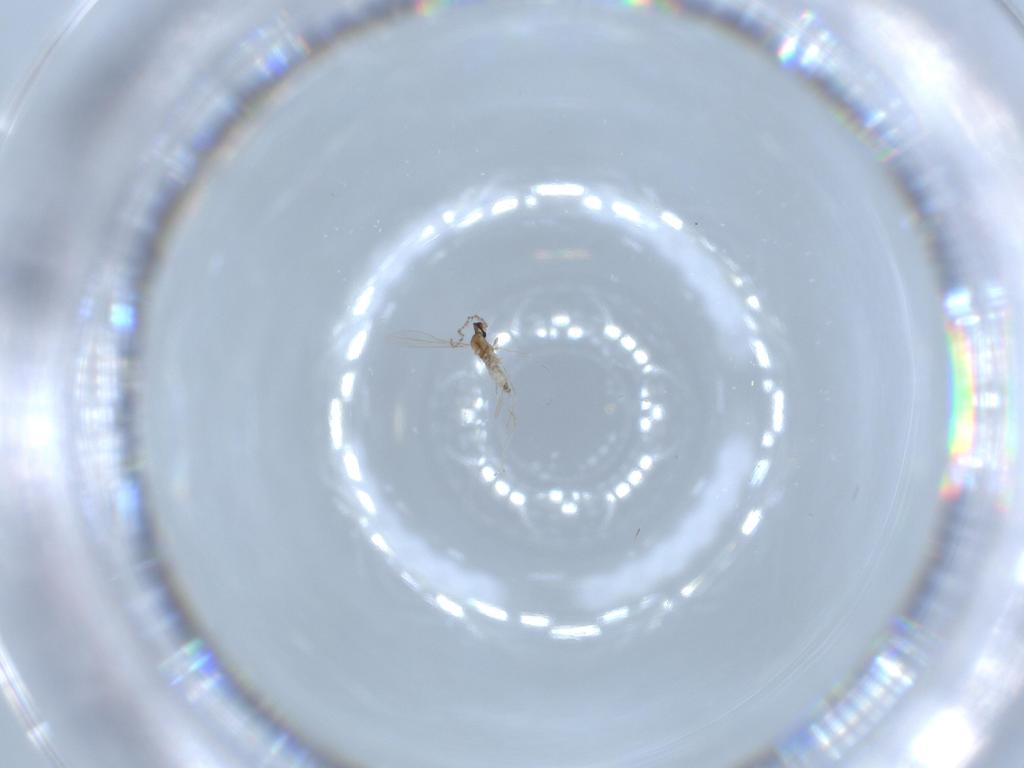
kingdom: Animalia
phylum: Arthropoda
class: Insecta
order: Diptera
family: Cecidomyiidae
